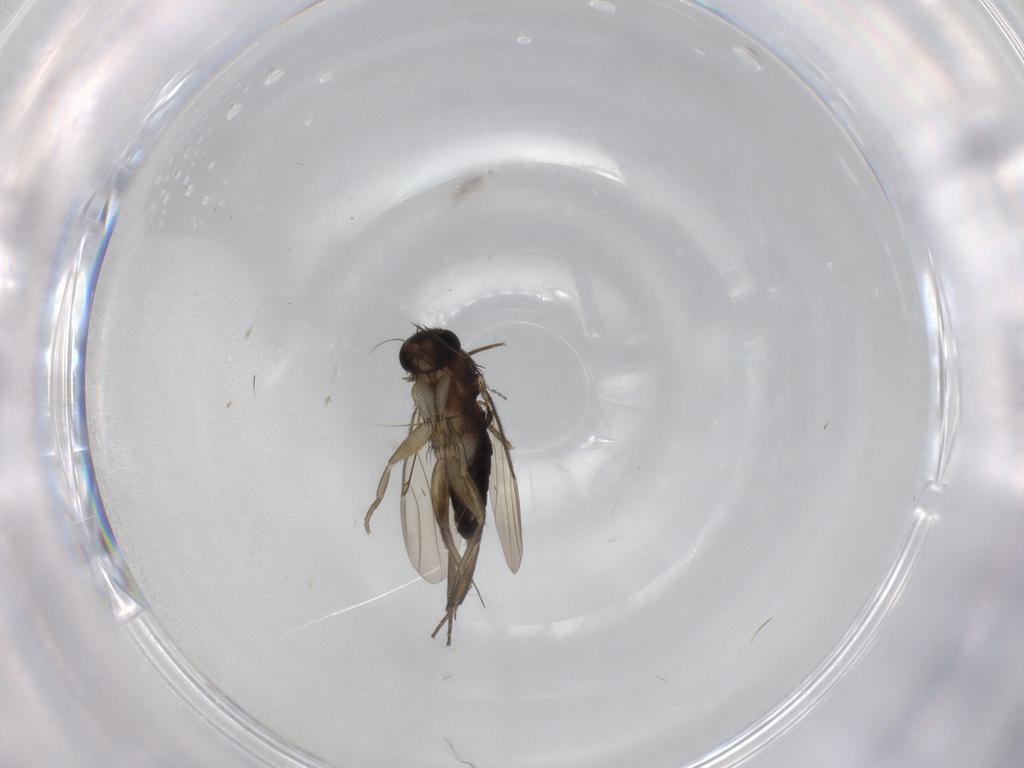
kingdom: Animalia
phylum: Arthropoda
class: Insecta
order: Diptera
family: Phoridae
